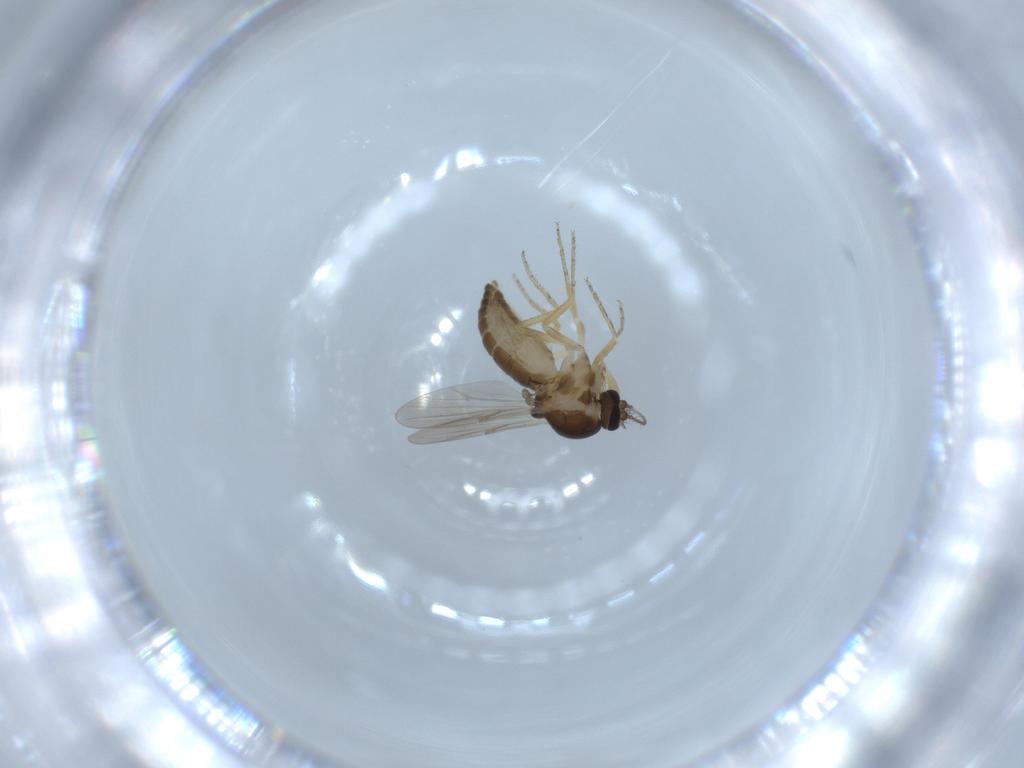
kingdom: Animalia
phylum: Arthropoda
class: Insecta
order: Diptera
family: Ceratopogonidae
